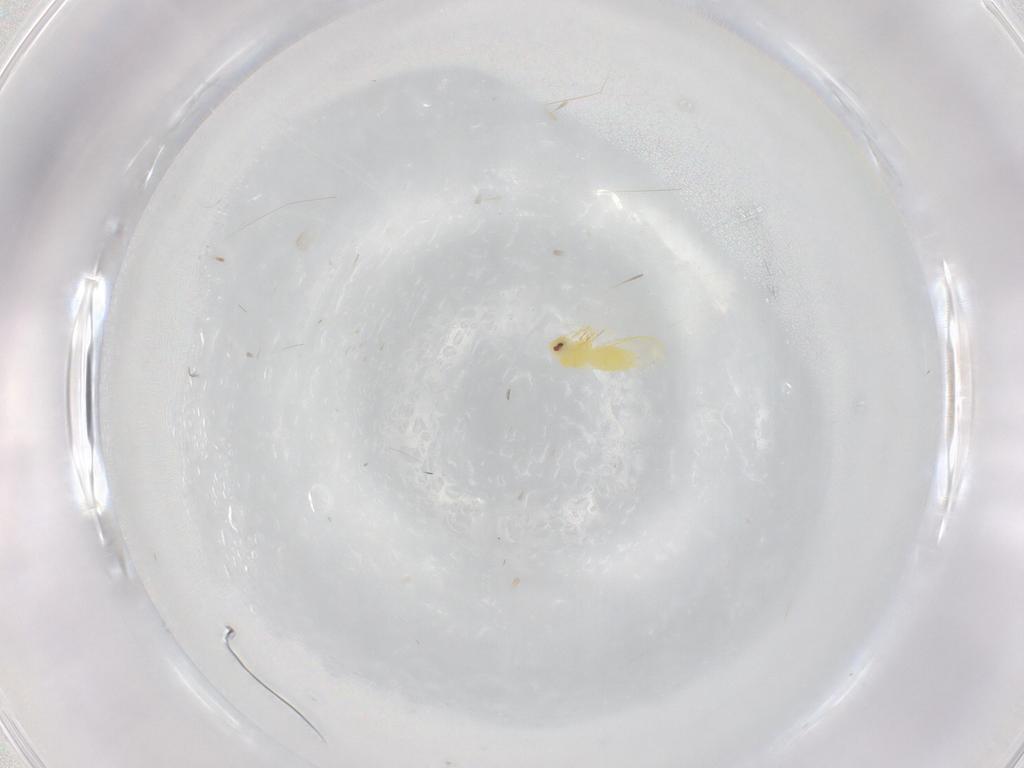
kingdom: Animalia
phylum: Arthropoda
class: Insecta
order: Hemiptera
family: Aleyrodidae
